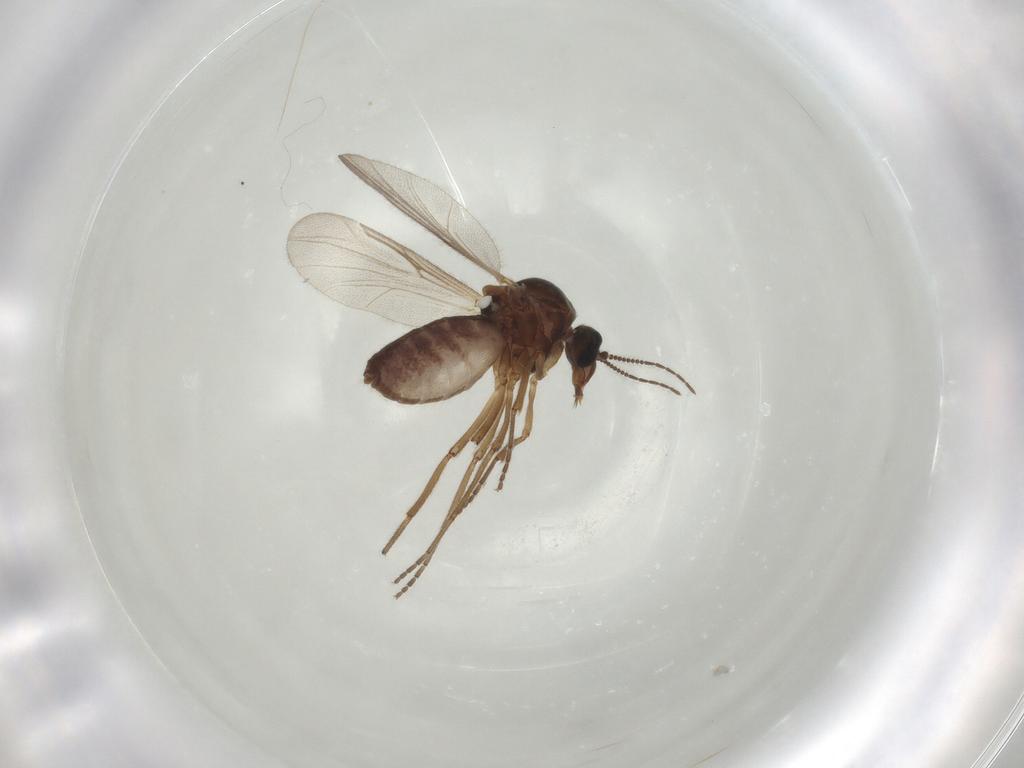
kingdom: Animalia
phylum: Arthropoda
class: Insecta
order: Diptera
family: Ceratopogonidae
